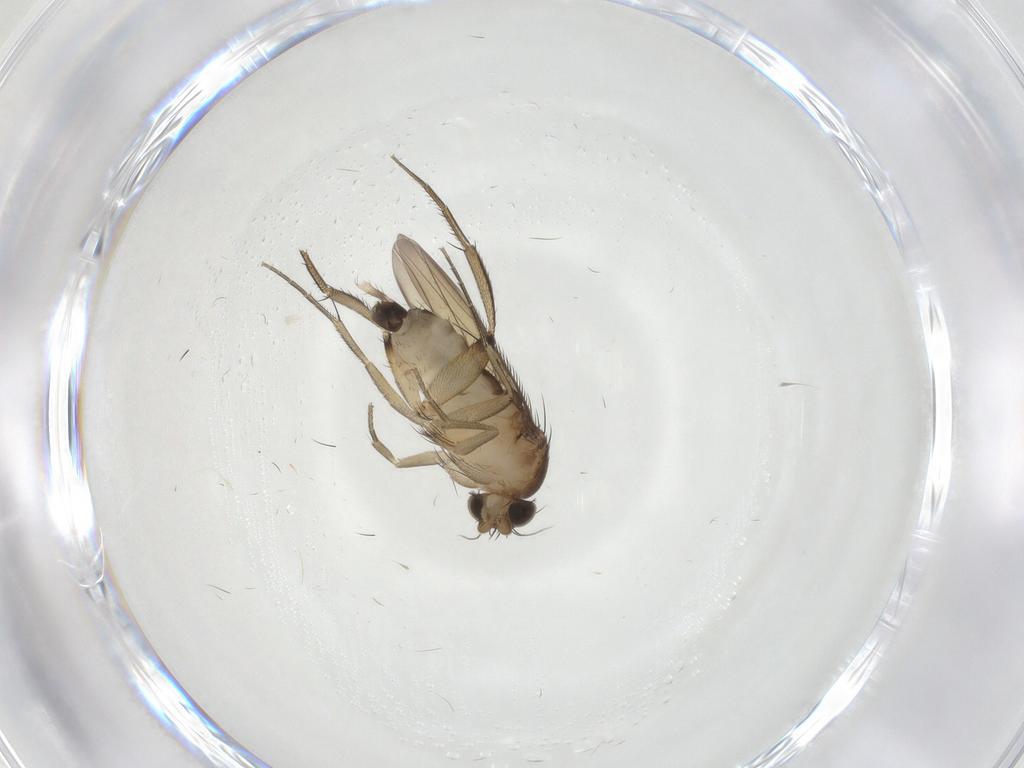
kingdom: Animalia
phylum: Arthropoda
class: Insecta
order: Diptera
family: Phoridae
